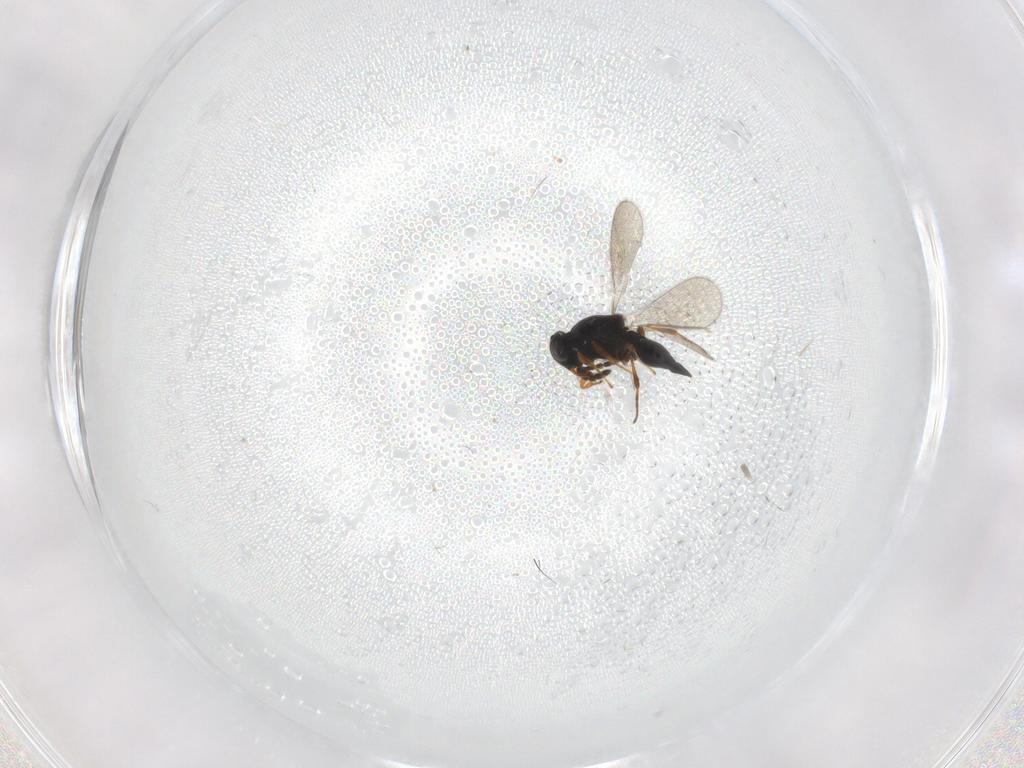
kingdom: Animalia
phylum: Arthropoda
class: Insecta
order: Hymenoptera
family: Platygastridae
